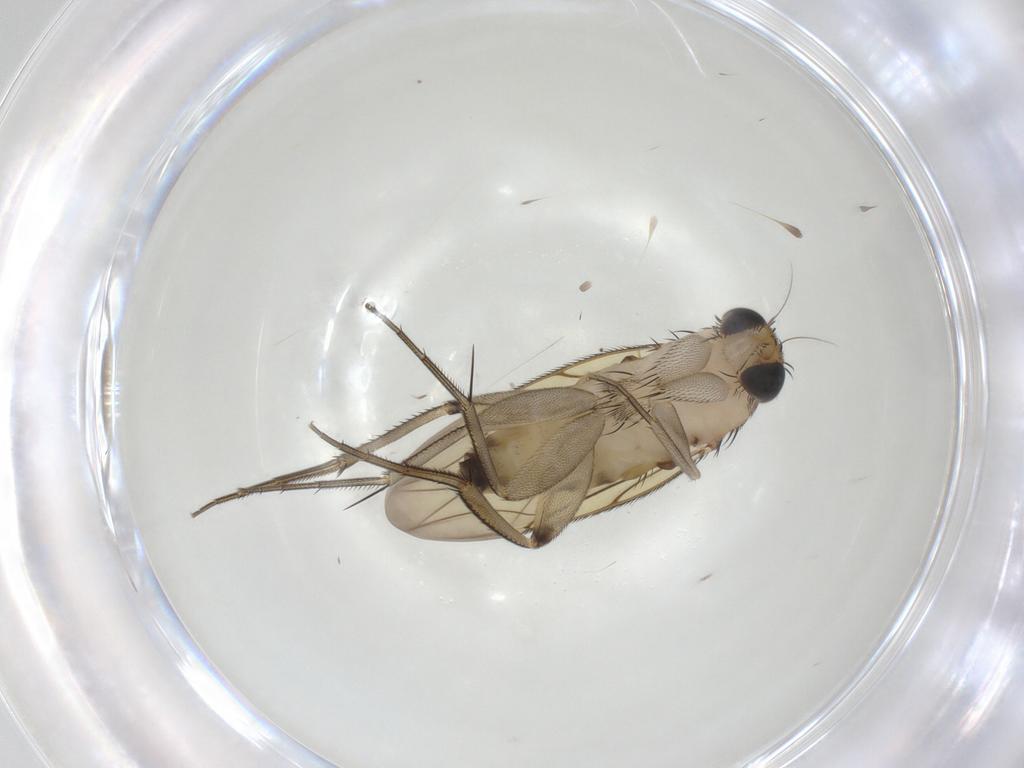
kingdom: Animalia
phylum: Arthropoda
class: Insecta
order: Diptera
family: Phoridae
